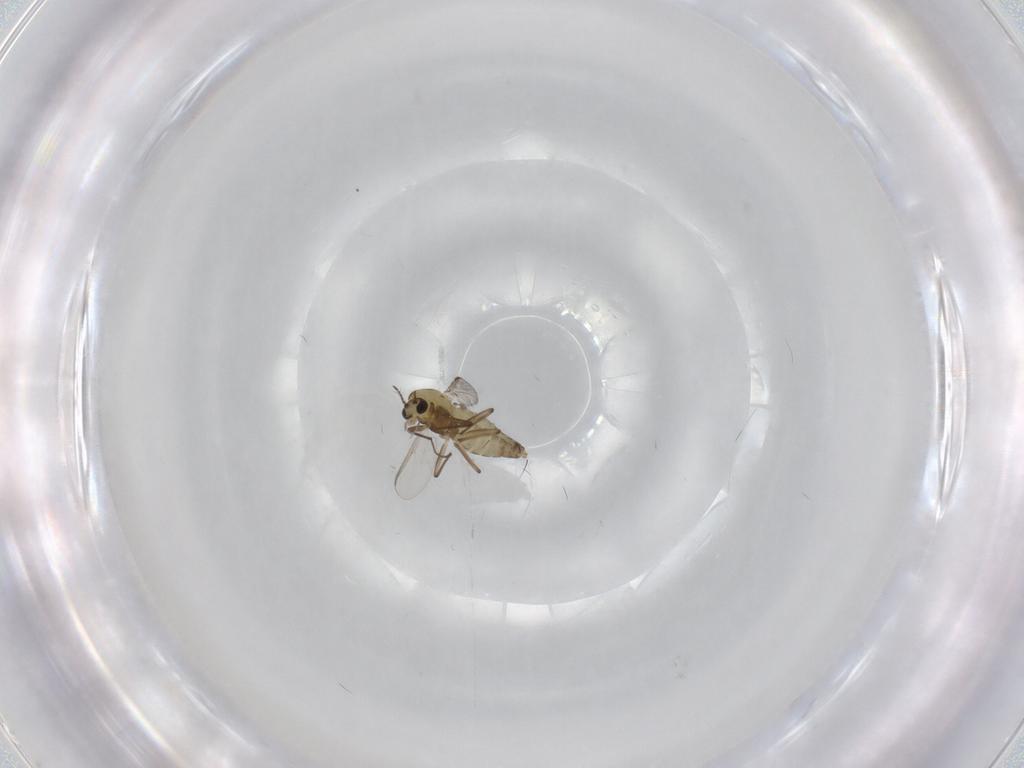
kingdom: Animalia
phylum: Arthropoda
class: Insecta
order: Diptera
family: Chironomidae
